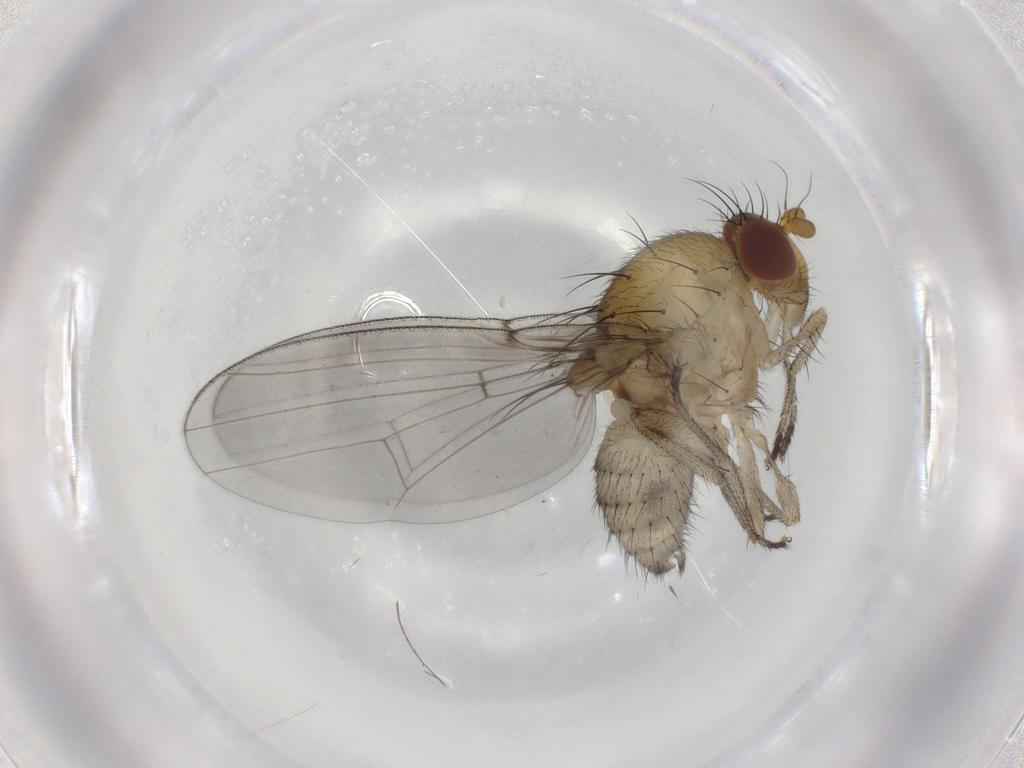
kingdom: Animalia
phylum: Arthropoda
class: Insecta
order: Diptera
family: Lauxaniidae
